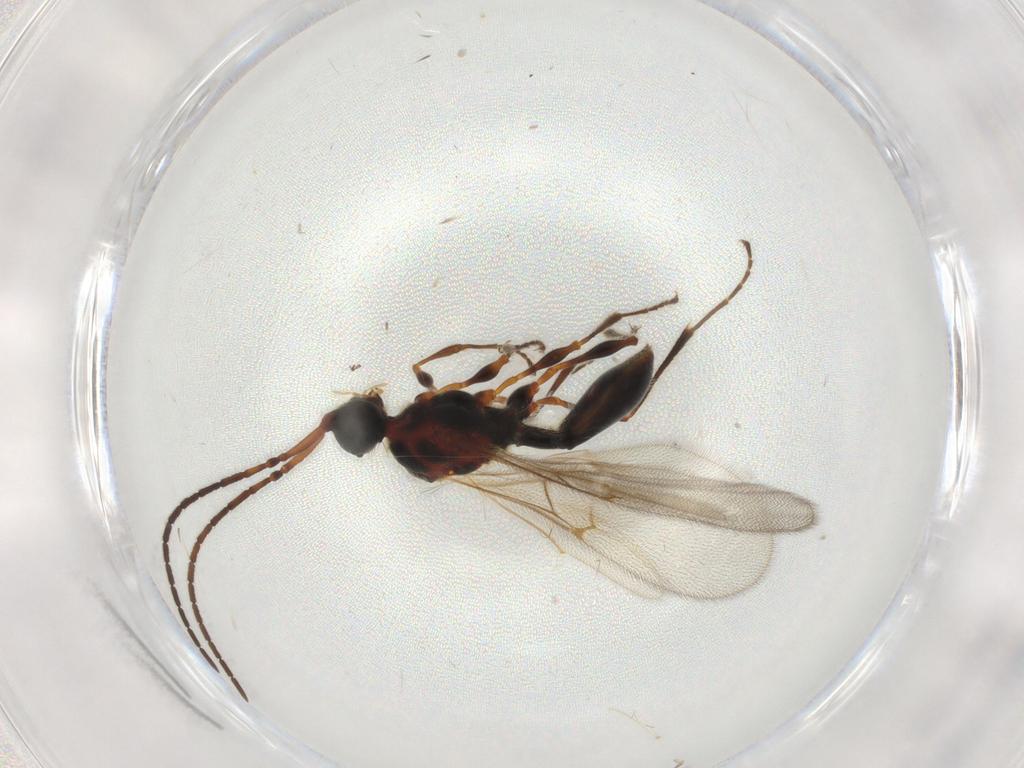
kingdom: Animalia
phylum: Arthropoda
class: Insecta
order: Hymenoptera
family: Diapriidae
